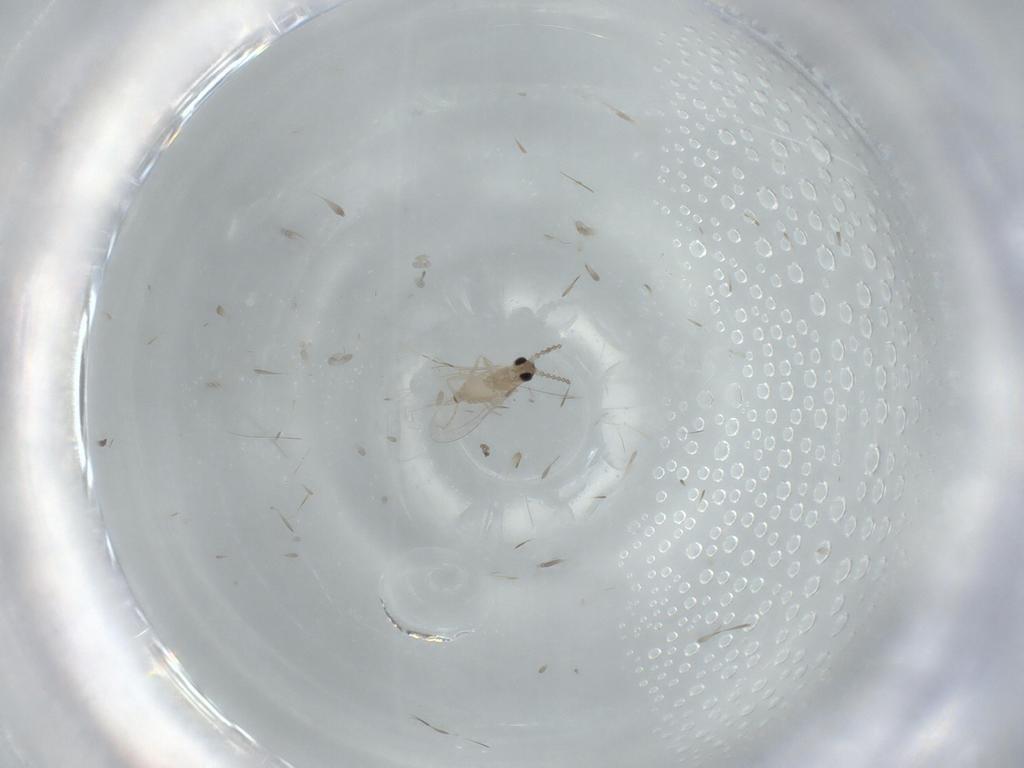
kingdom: Animalia
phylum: Arthropoda
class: Insecta
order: Diptera
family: Cecidomyiidae
